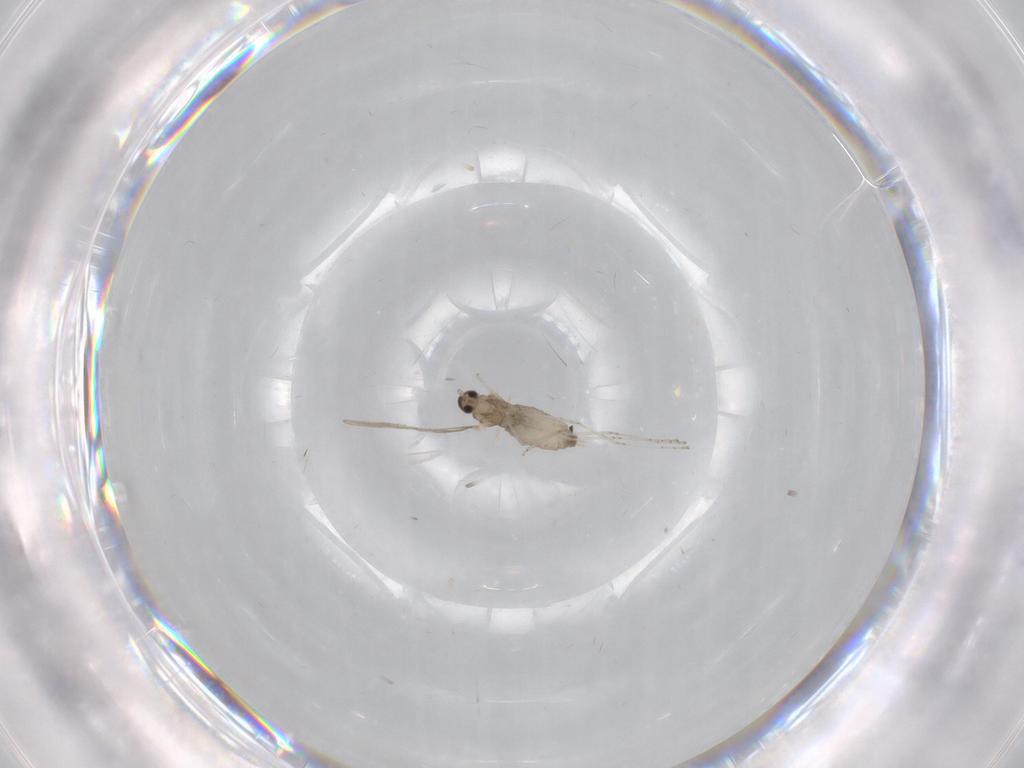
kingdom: Animalia
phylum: Arthropoda
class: Insecta
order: Diptera
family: Cecidomyiidae
